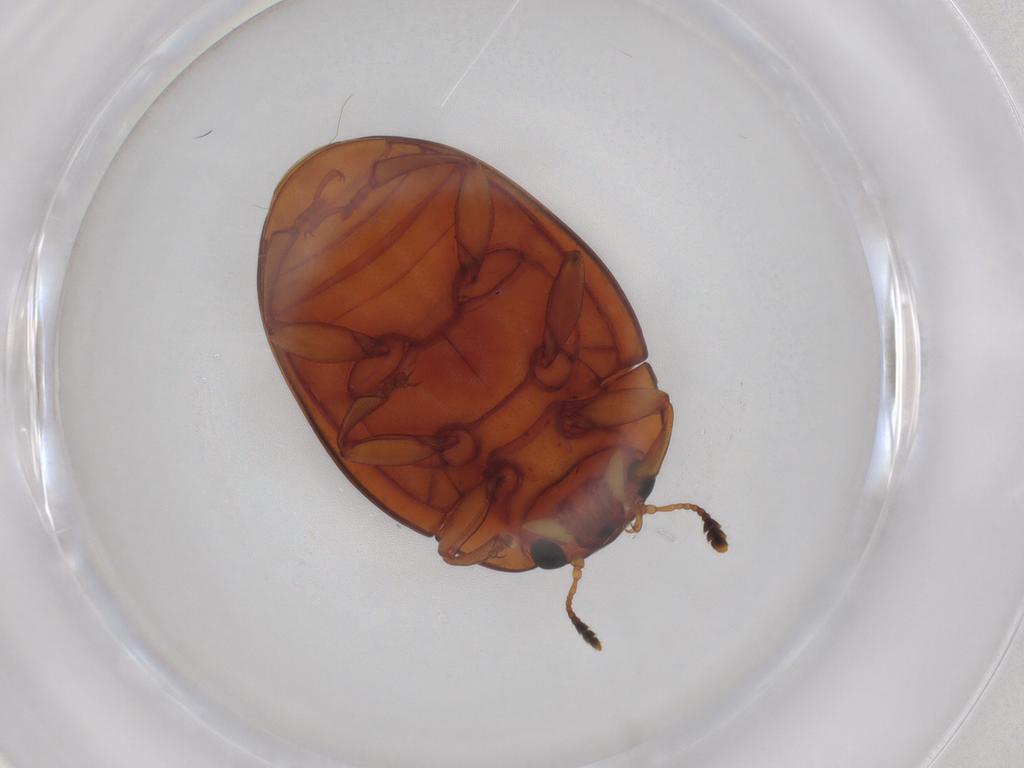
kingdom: Animalia
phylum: Arthropoda
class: Insecta
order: Coleoptera
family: Erotylidae
